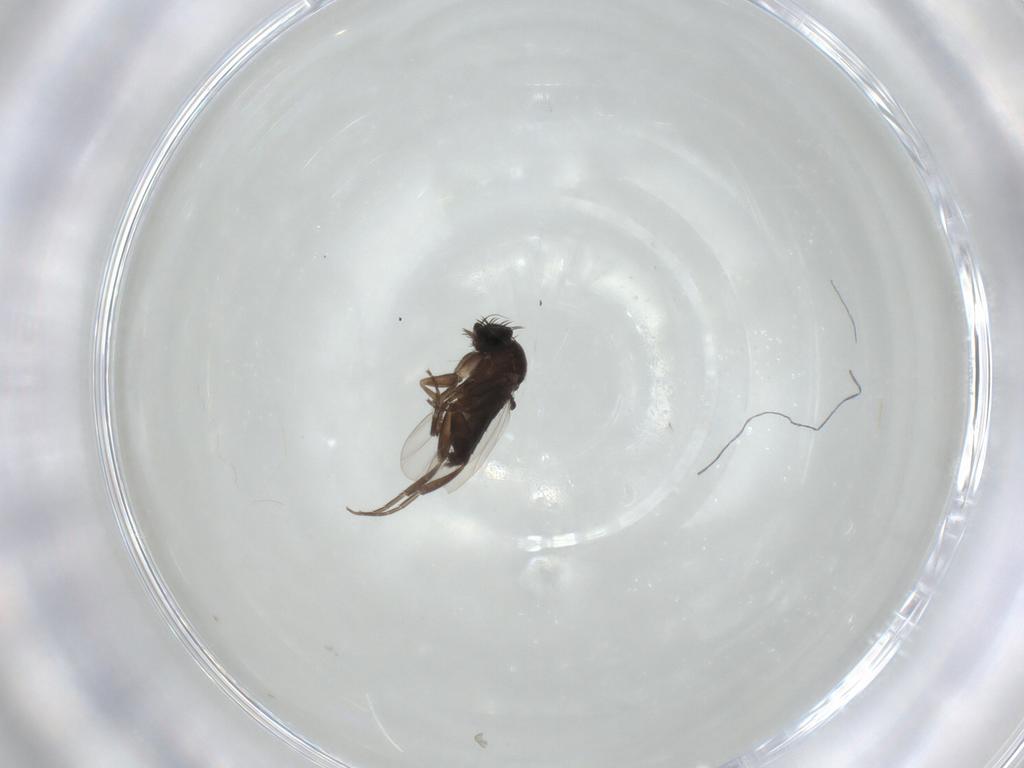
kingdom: Animalia
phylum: Arthropoda
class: Insecta
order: Diptera
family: Phoridae
